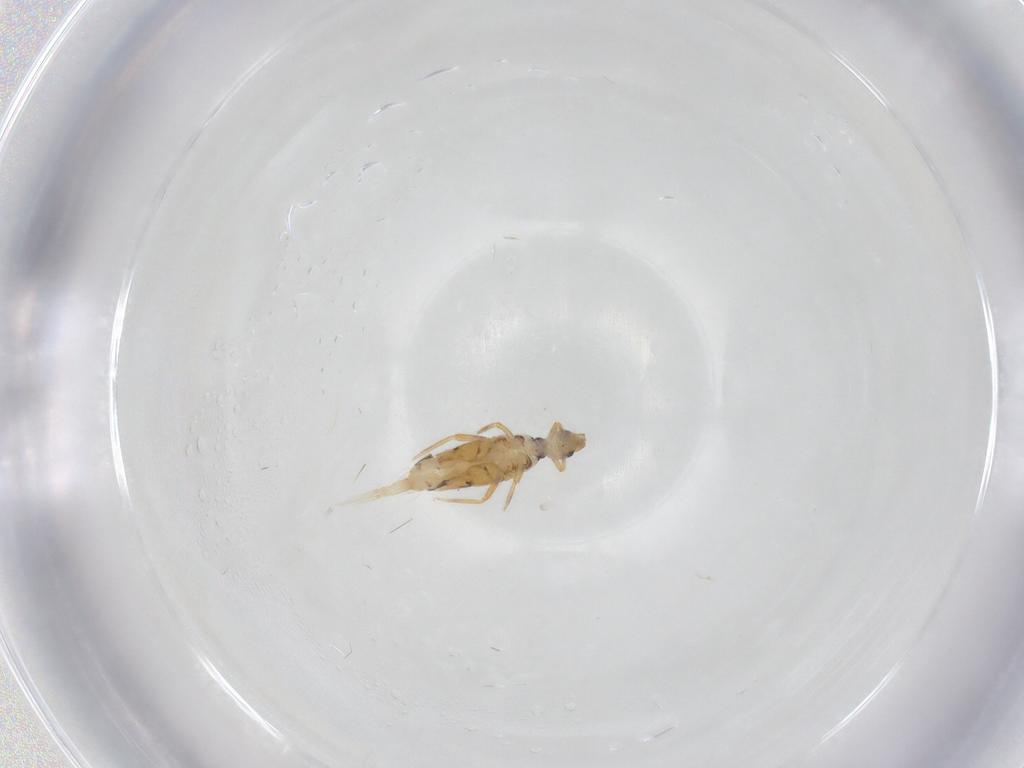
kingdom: Animalia
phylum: Arthropoda
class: Collembola
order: Entomobryomorpha
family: Entomobryidae
